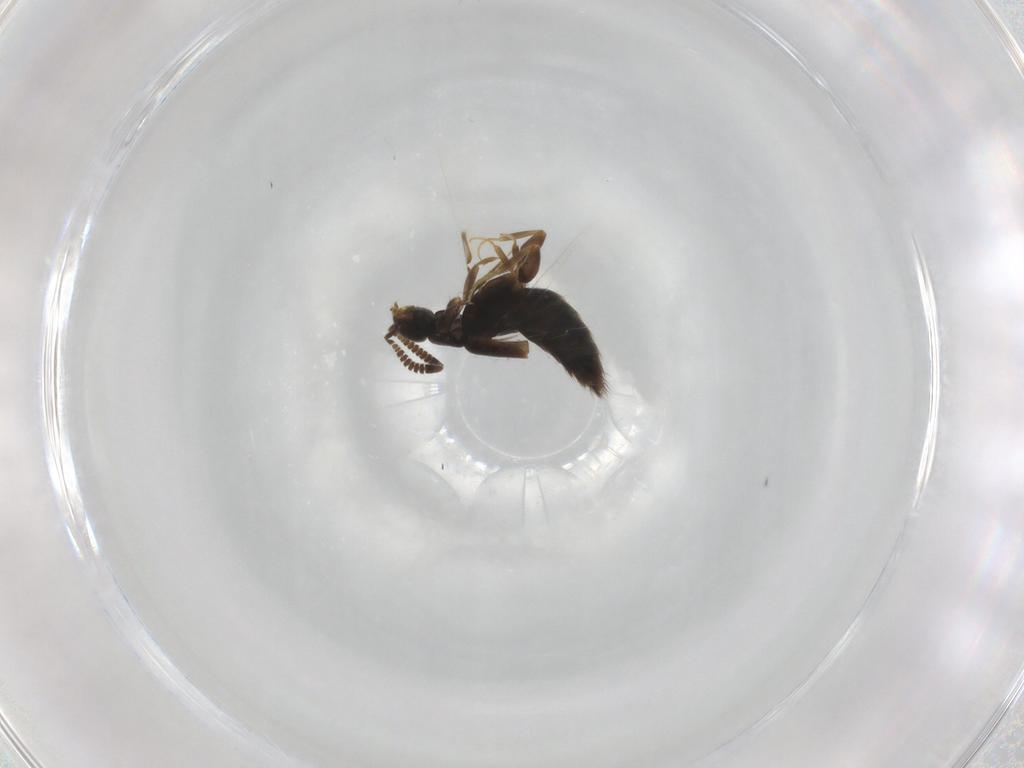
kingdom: Animalia
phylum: Arthropoda
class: Insecta
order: Coleoptera
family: Staphylinidae
